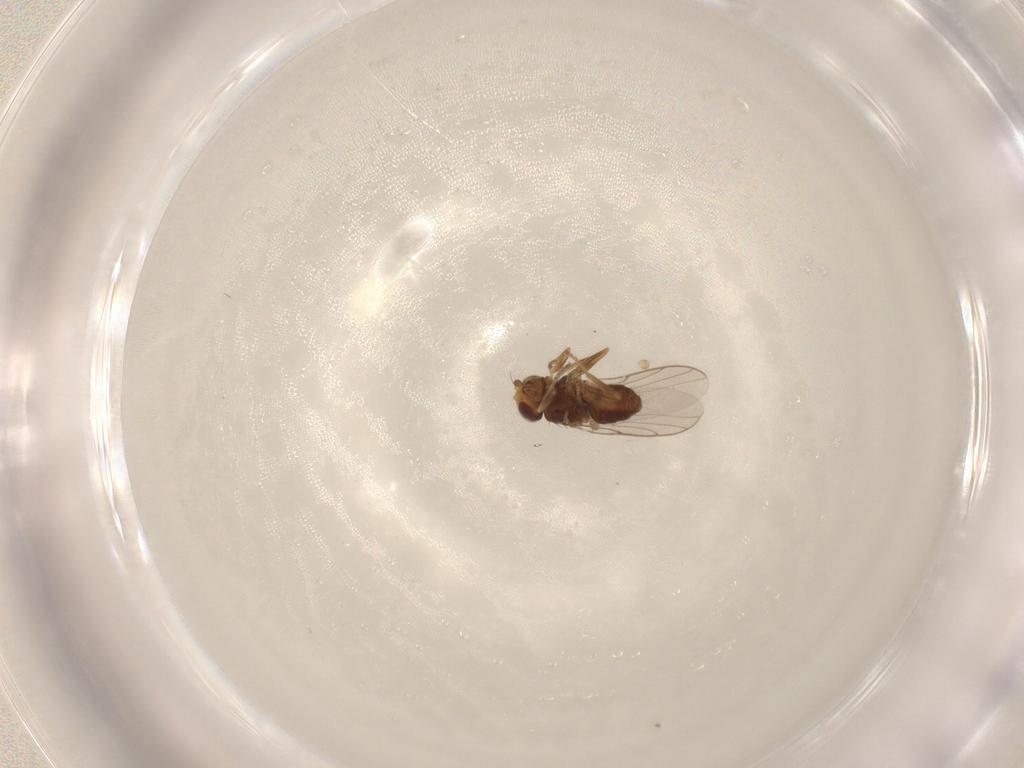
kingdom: Animalia
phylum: Arthropoda
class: Insecta
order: Diptera
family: Chloropidae
